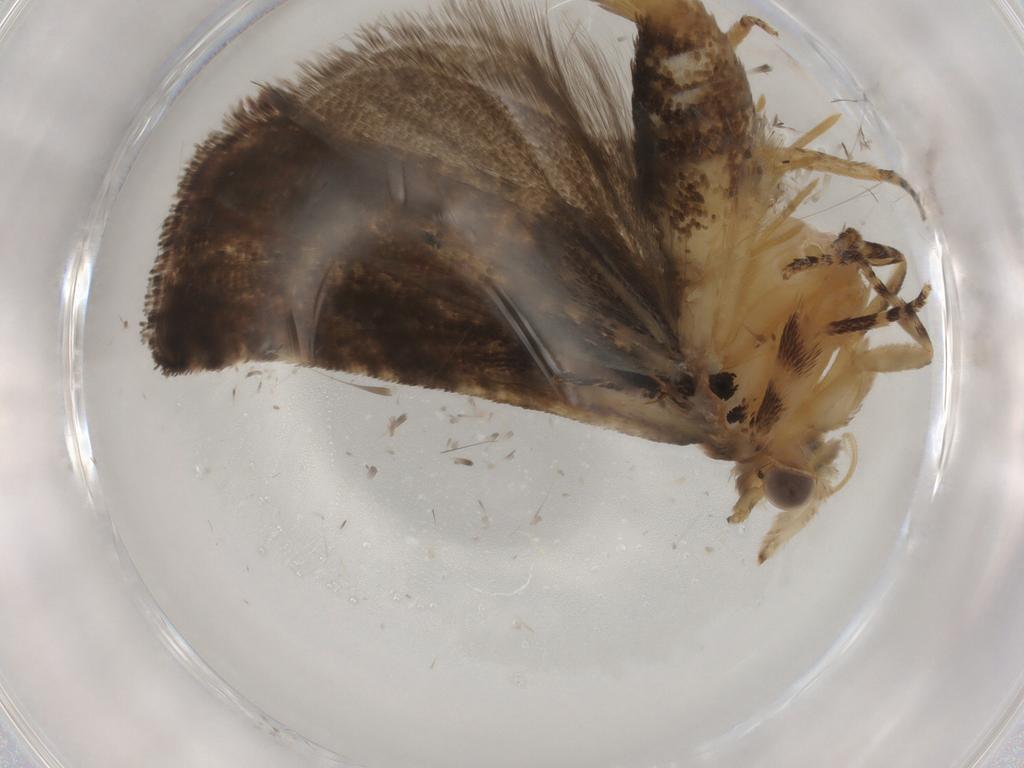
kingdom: Animalia
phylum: Arthropoda
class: Insecta
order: Lepidoptera
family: Tortricidae
